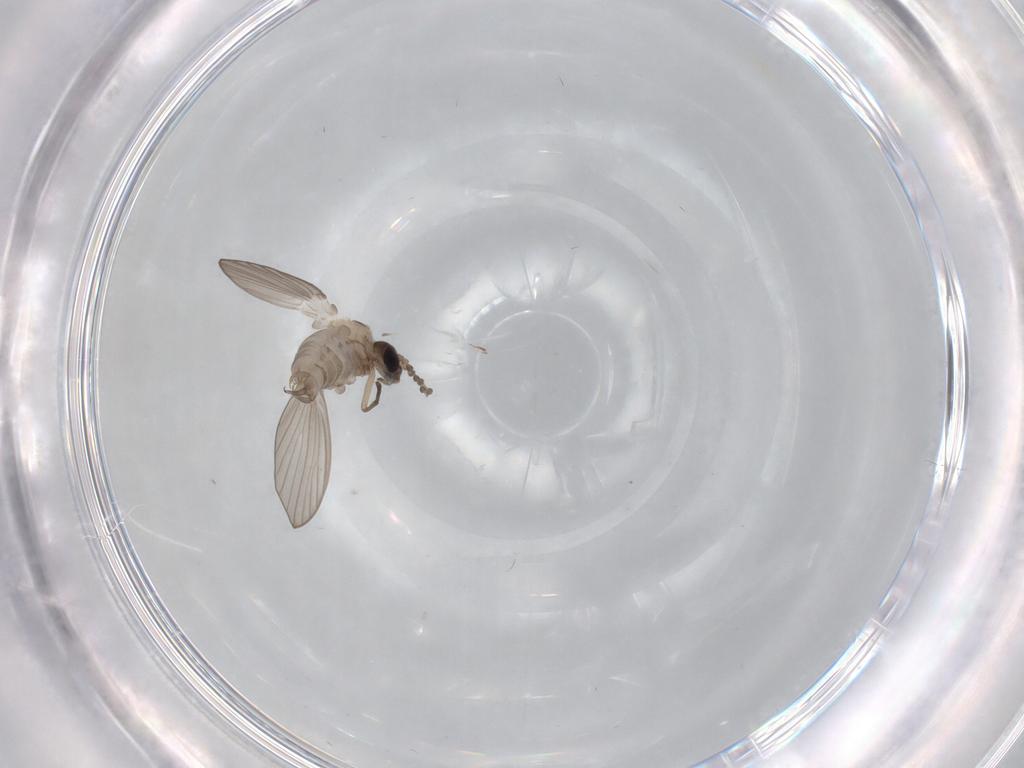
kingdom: Animalia
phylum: Arthropoda
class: Insecta
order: Diptera
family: Psychodidae
